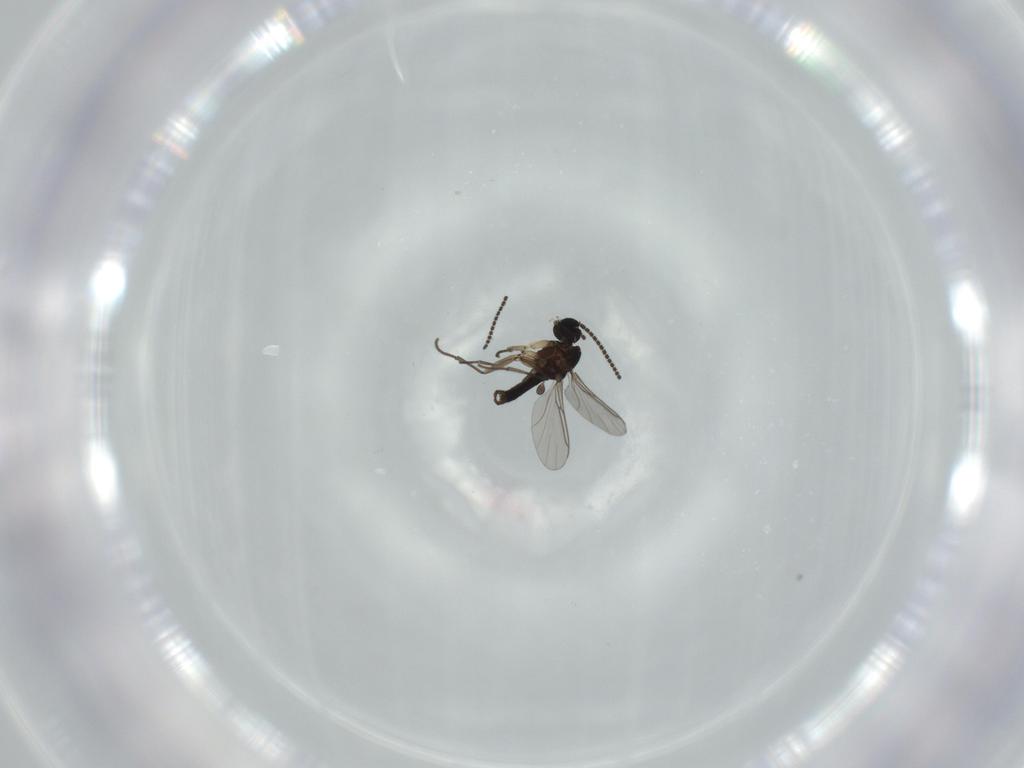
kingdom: Animalia
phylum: Arthropoda
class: Insecta
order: Diptera
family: Sciaridae
